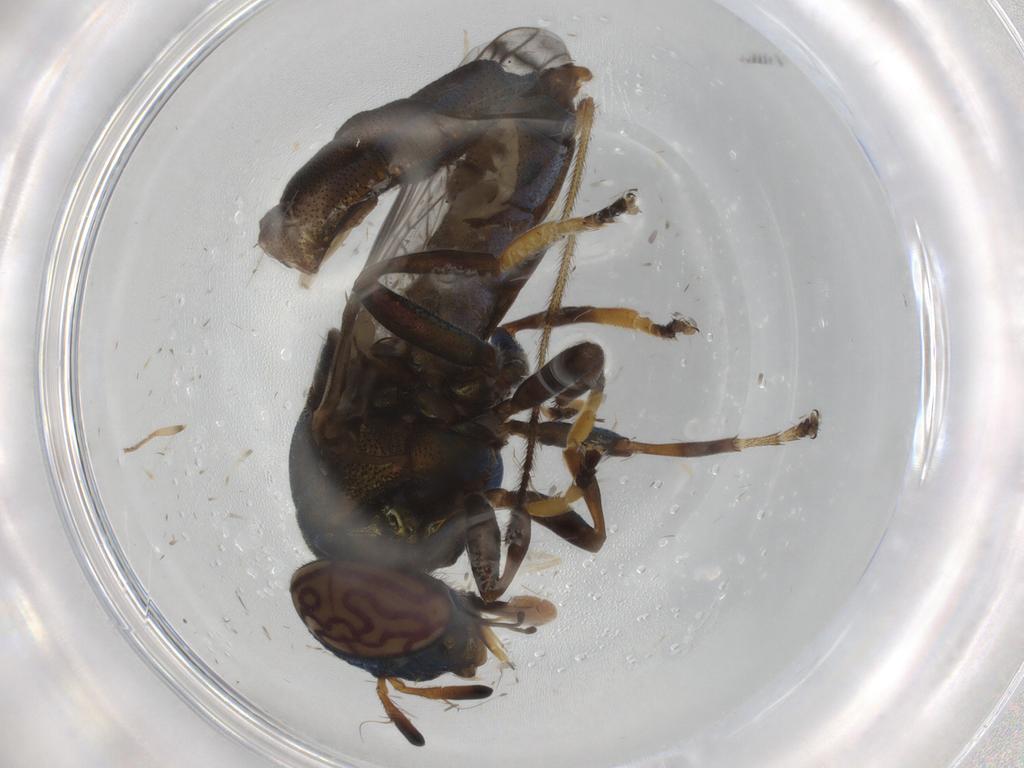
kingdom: Animalia
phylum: Arthropoda
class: Insecta
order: Diptera
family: Syrphidae
